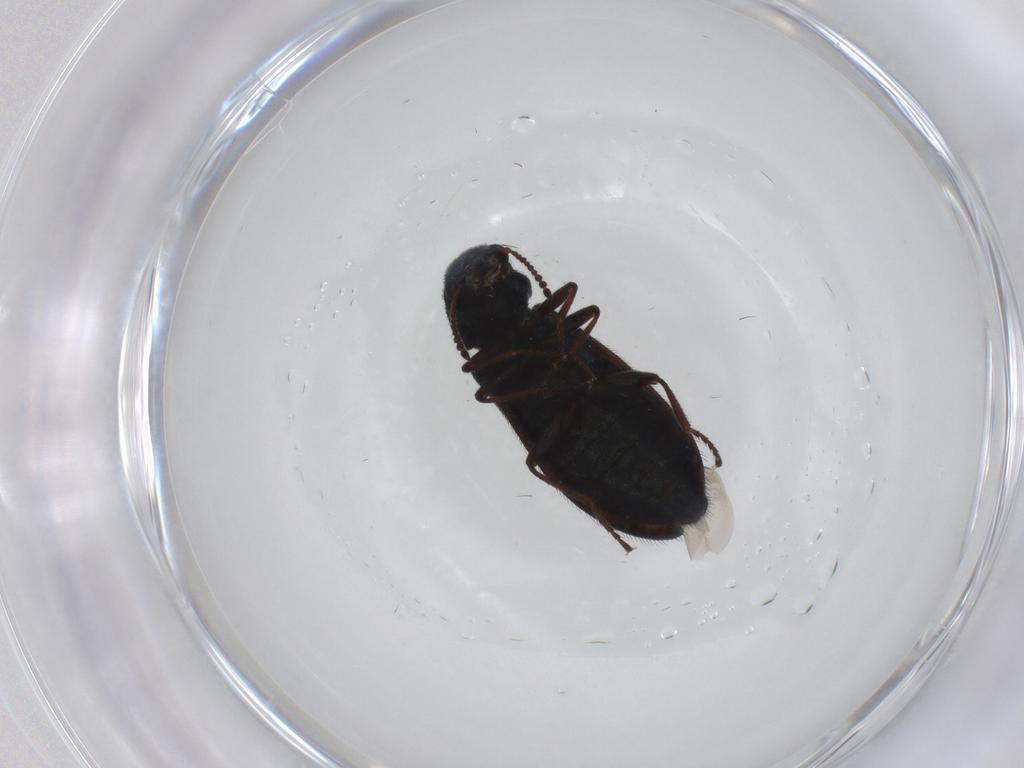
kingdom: Animalia
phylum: Arthropoda
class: Insecta
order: Coleoptera
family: Melyridae
